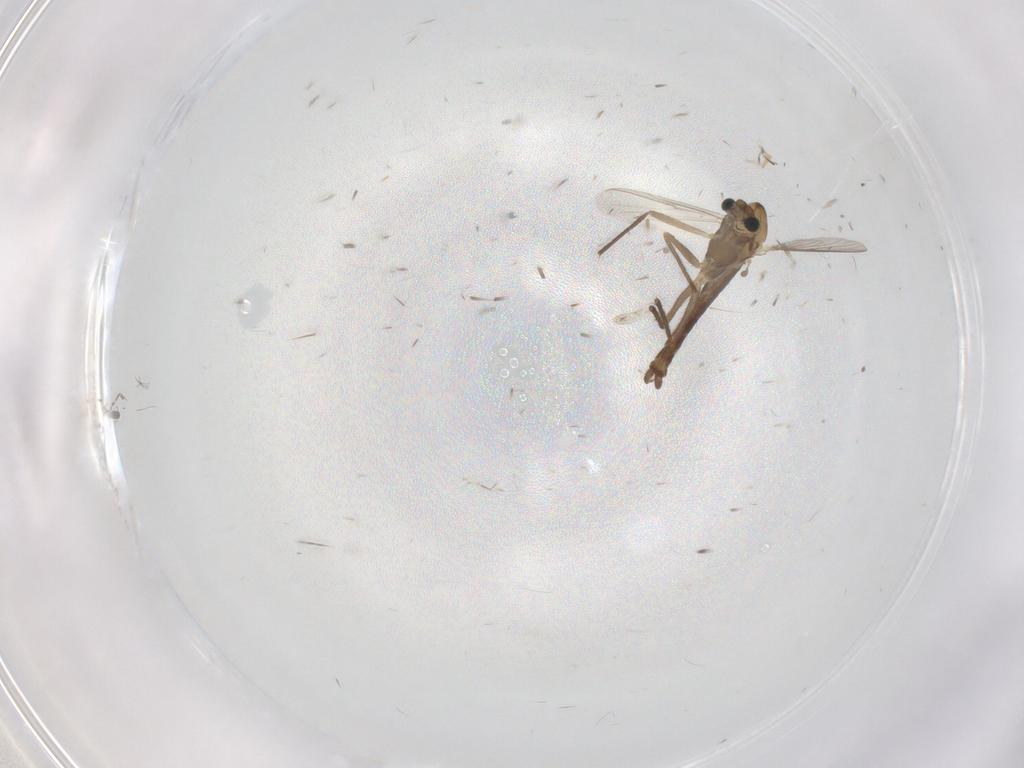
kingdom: Animalia
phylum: Arthropoda
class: Insecta
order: Diptera
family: Chironomidae
